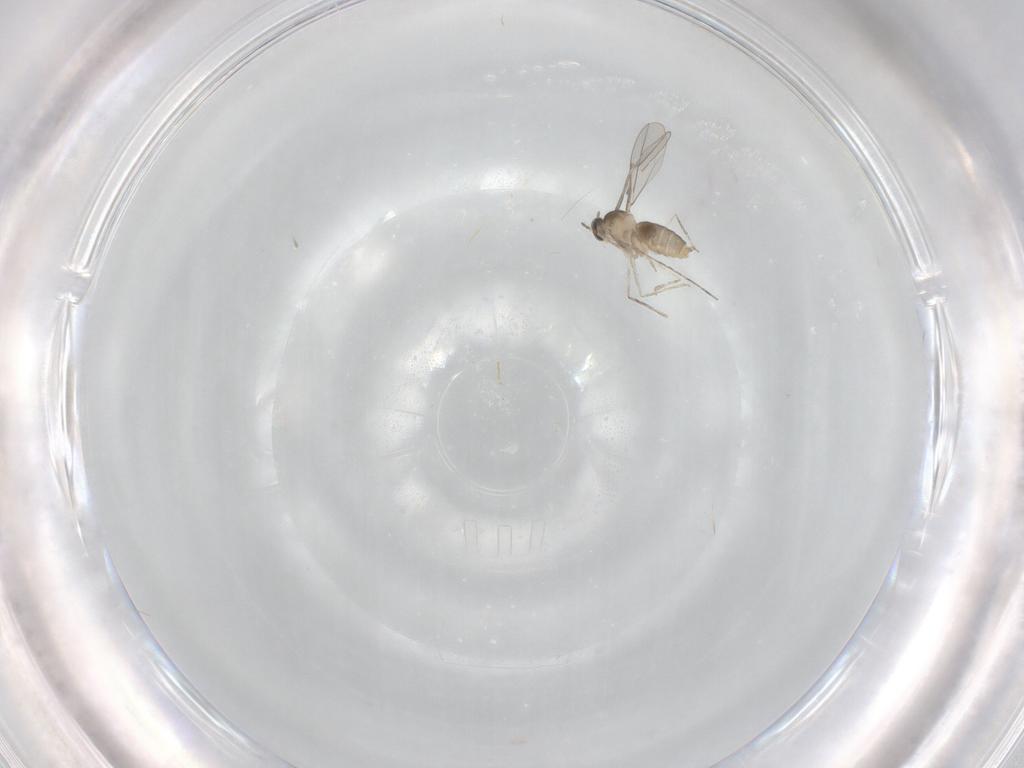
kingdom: Animalia
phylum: Arthropoda
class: Insecta
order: Diptera
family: Cecidomyiidae
